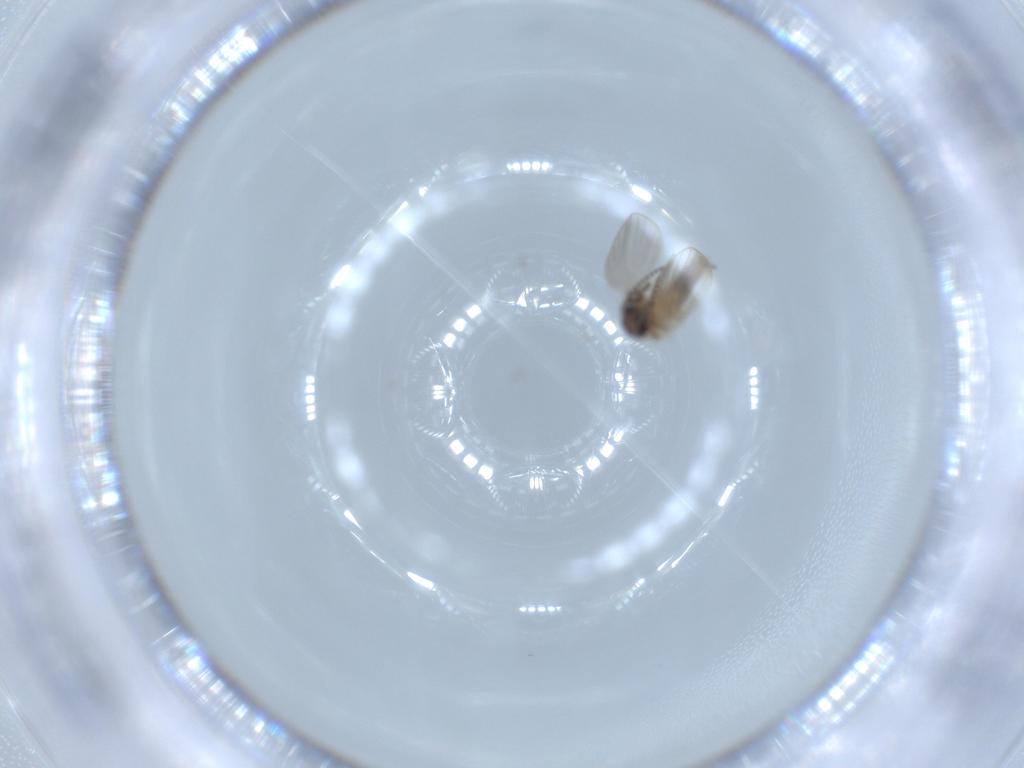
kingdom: Animalia
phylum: Arthropoda
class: Insecta
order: Diptera
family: Psychodidae
